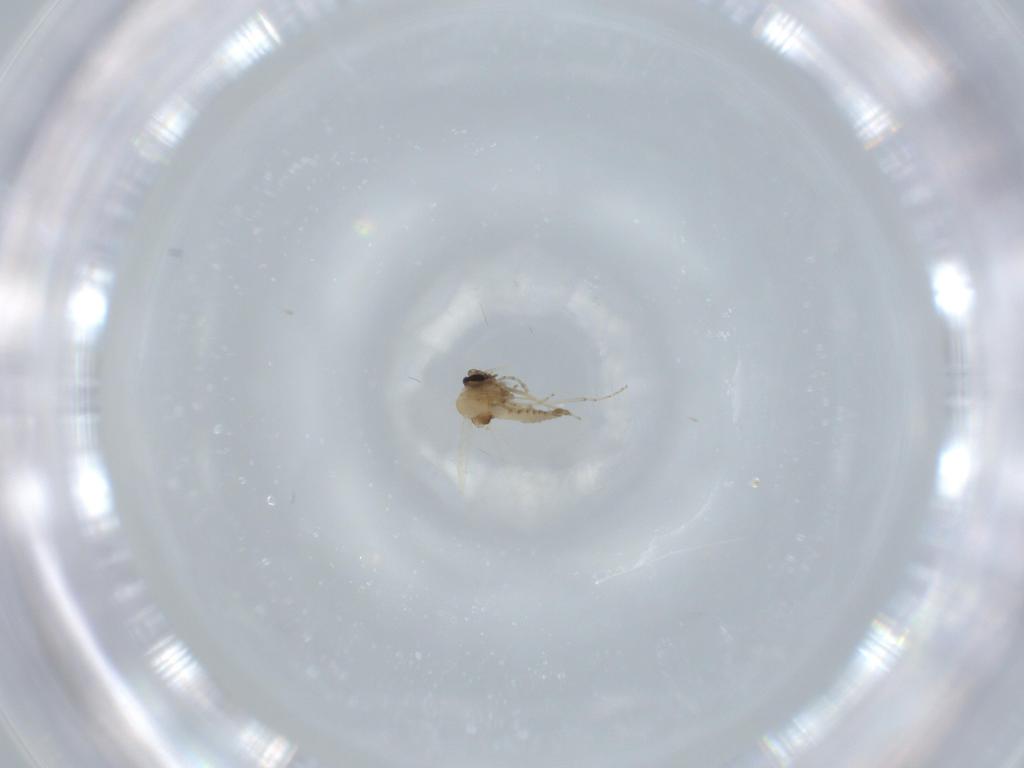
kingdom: Animalia
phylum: Arthropoda
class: Insecta
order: Diptera
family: Ceratopogonidae
